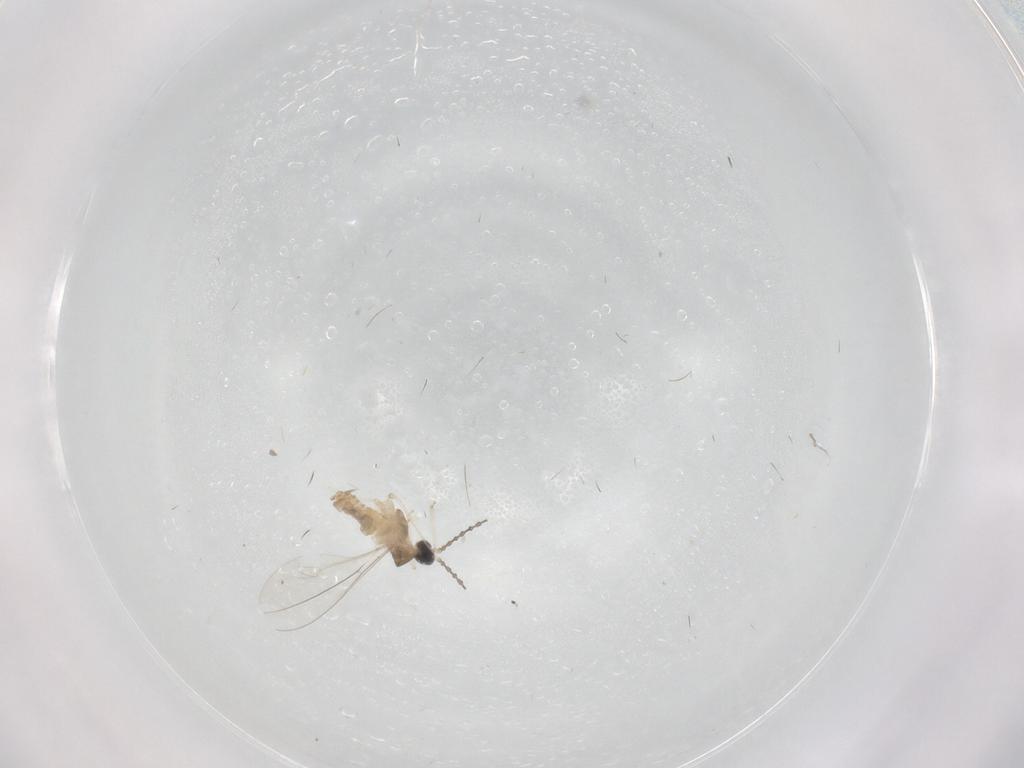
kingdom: Animalia
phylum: Arthropoda
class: Insecta
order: Diptera
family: Cecidomyiidae
